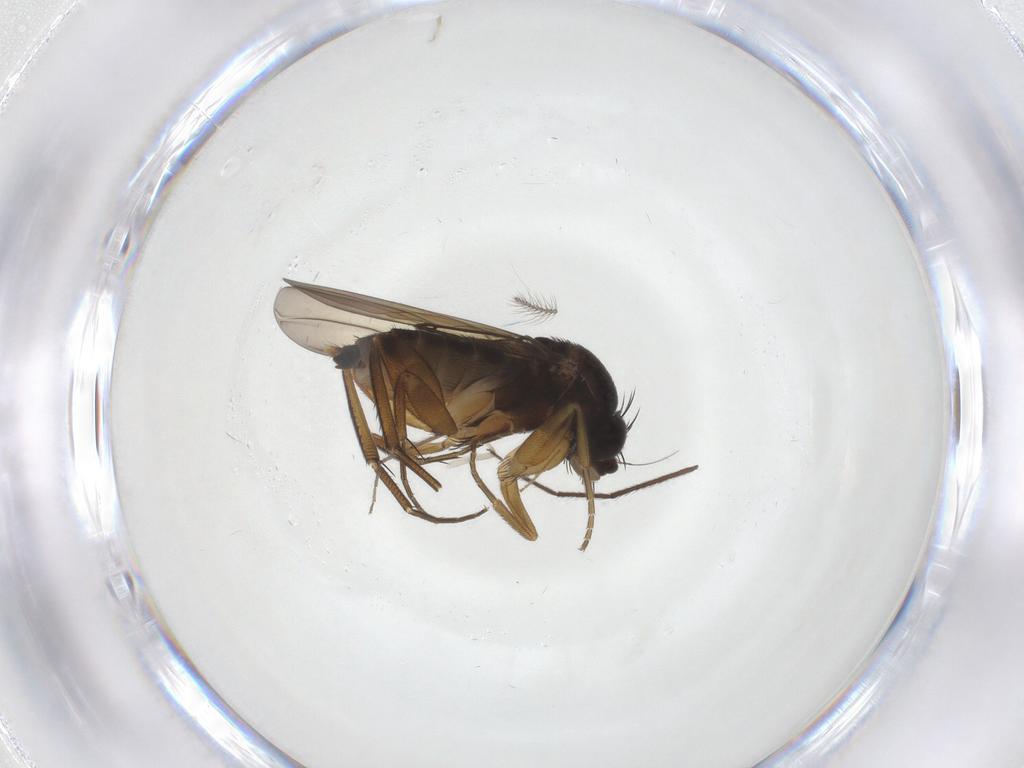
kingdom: Animalia
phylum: Arthropoda
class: Insecta
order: Diptera
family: Phoridae
